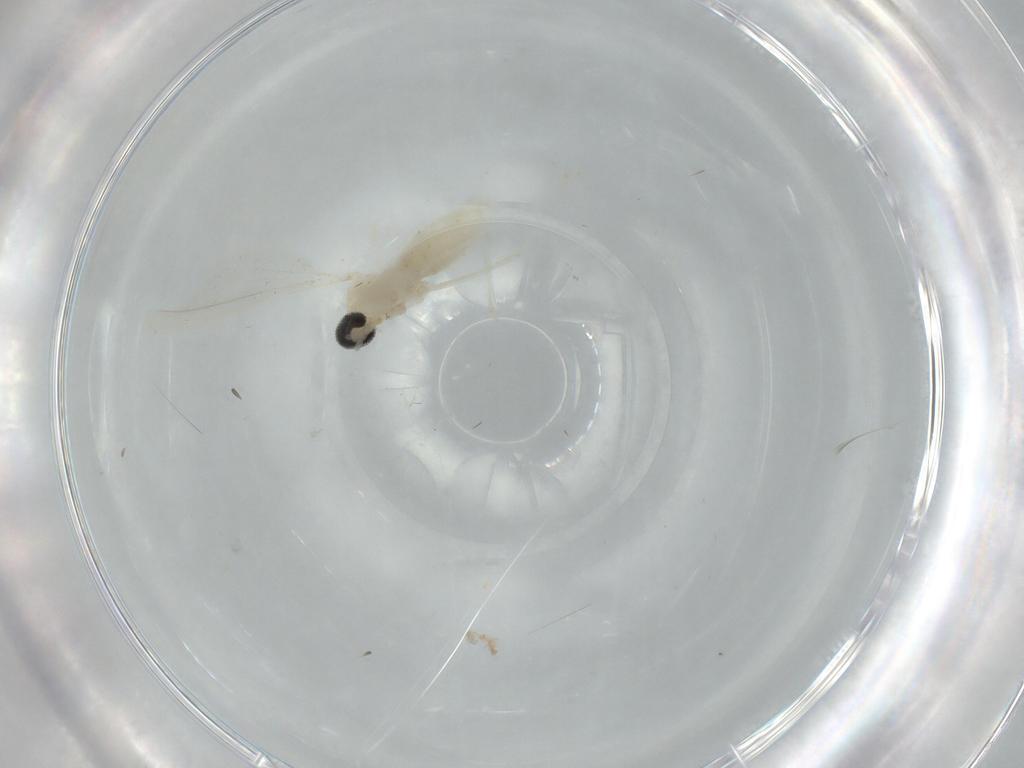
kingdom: Animalia
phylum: Arthropoda
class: Insecta
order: Diptera
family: Cecidomyiidae
